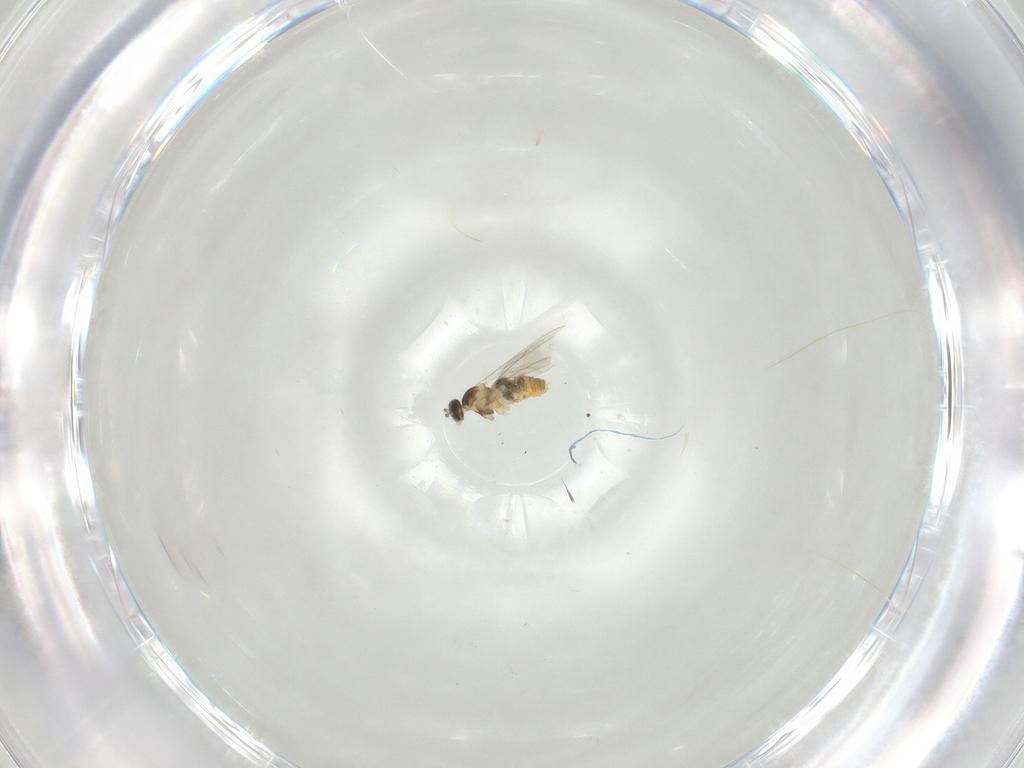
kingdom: Animalia
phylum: Arthropoda
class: Insecta
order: Diptera
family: Cecidomyiidae
